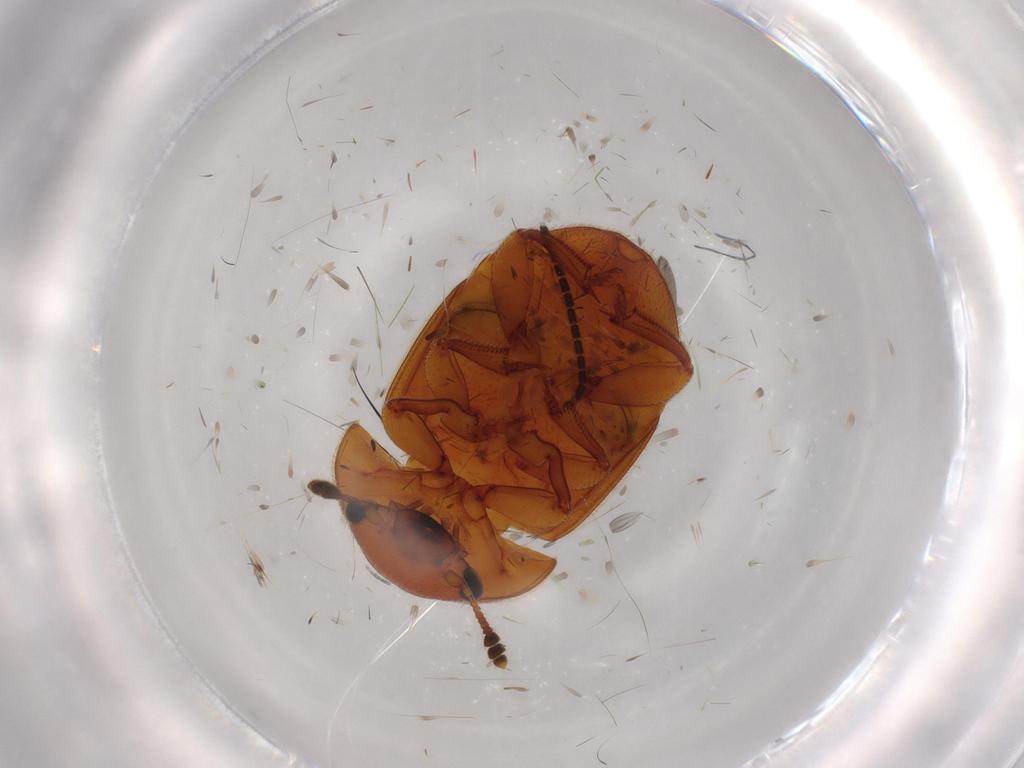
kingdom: Animalia
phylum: Arthropoda
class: Insecta
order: Coleoptera
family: Nitidulidae
